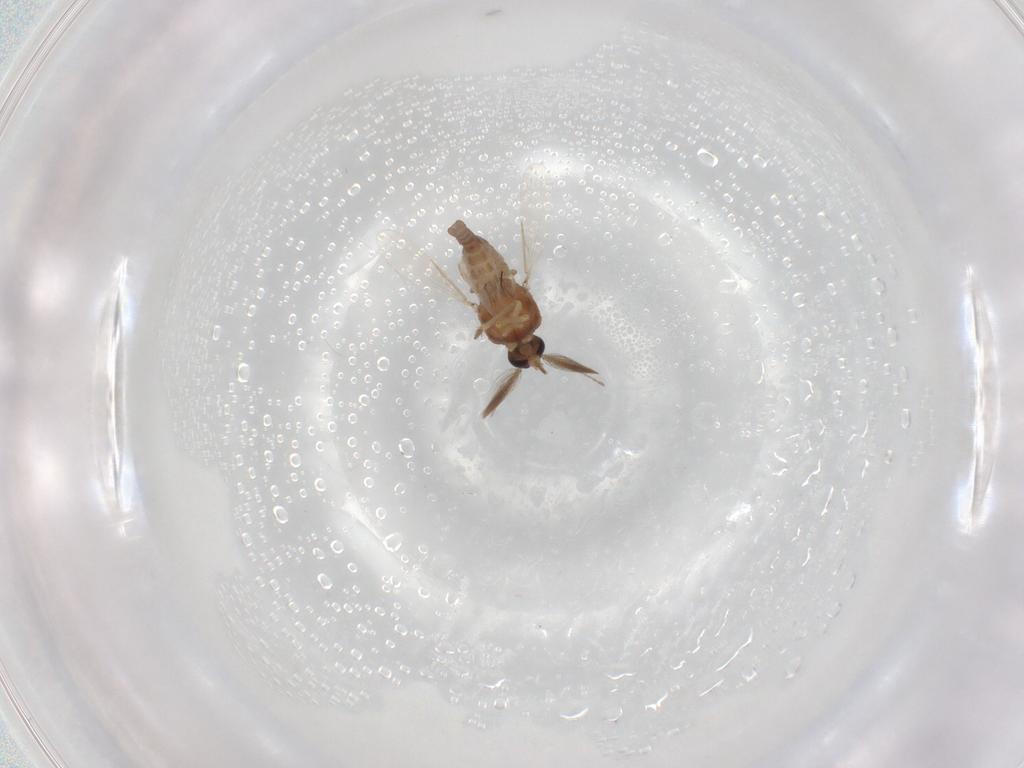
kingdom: Animalia
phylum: Arthropoda
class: Insecta
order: Diptera
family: Ceratopogonidae
